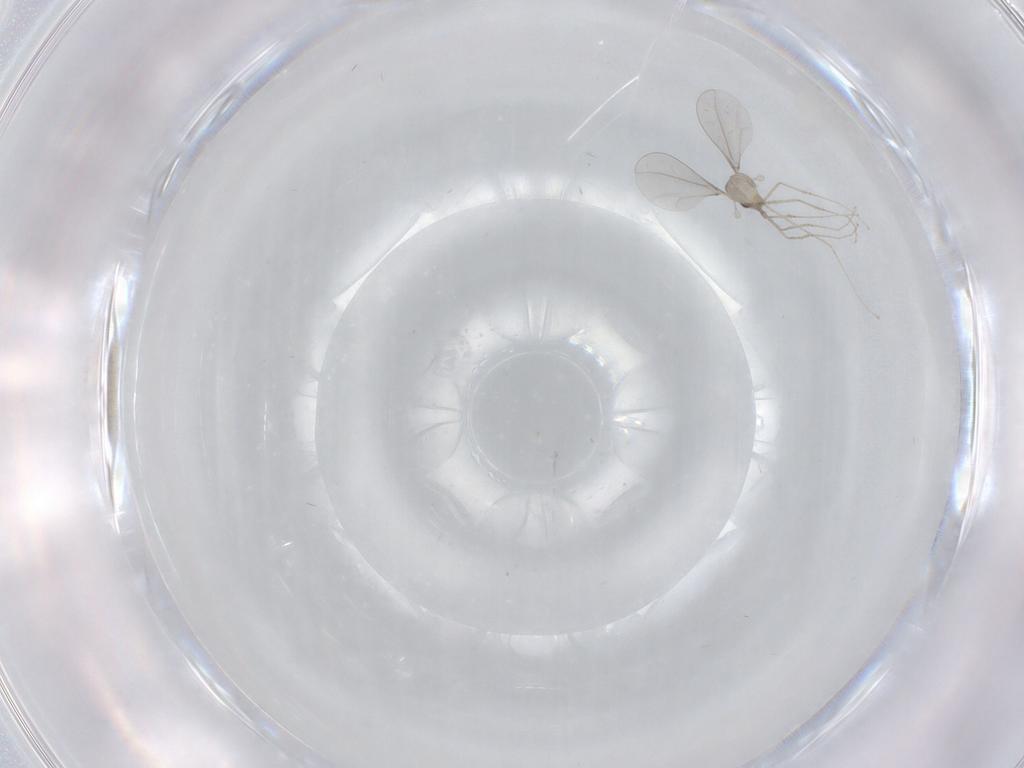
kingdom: Animalia
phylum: Arthropoda
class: Insecta
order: Diptera
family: Cecidomyiidae
